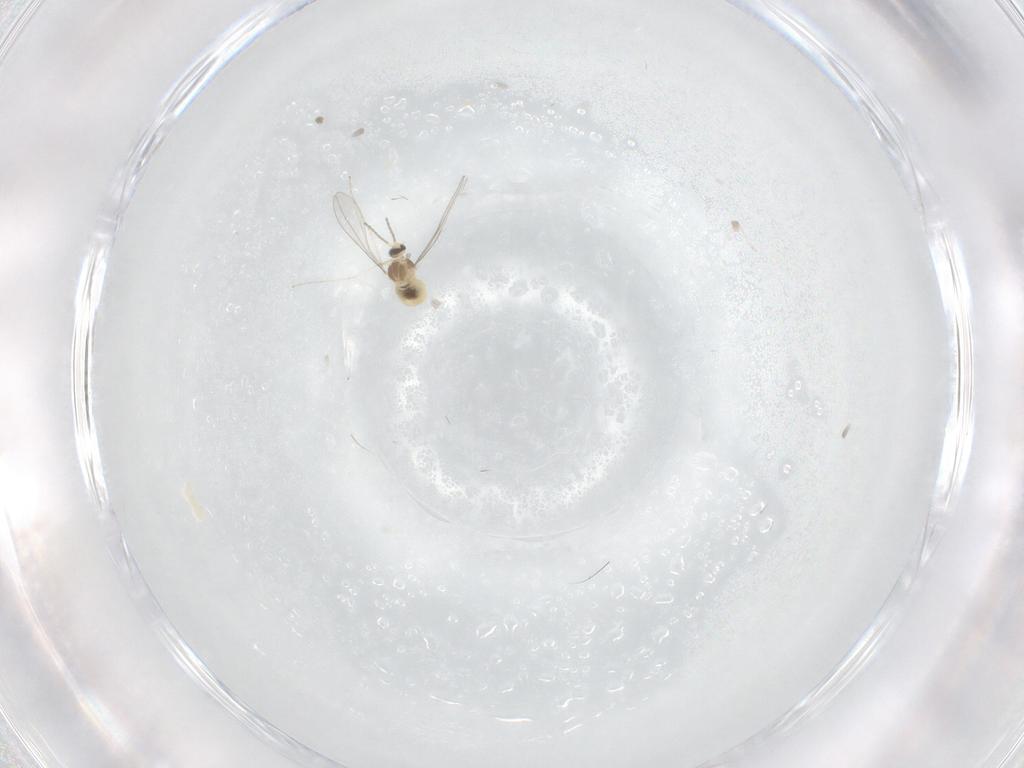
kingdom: Animalia
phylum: Arthropoda
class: Insecta
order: Diptera
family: Cecidomyiidae
